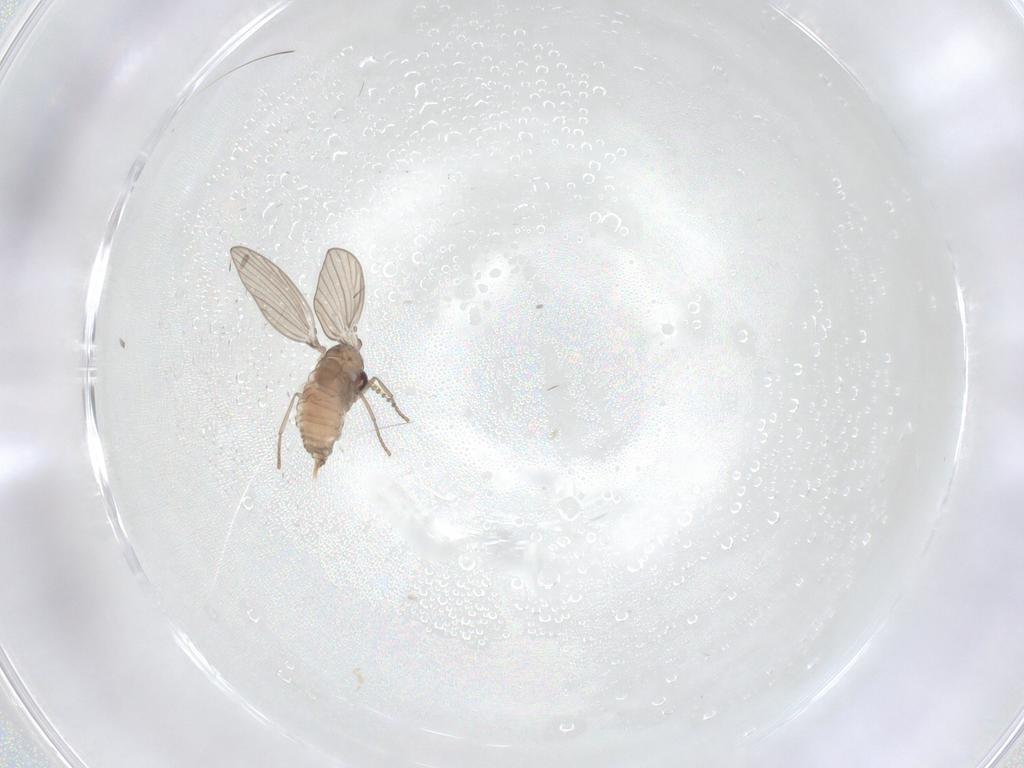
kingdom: Animalia
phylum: Arthropoda
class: Insecta
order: Diptera
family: Psychodidae
